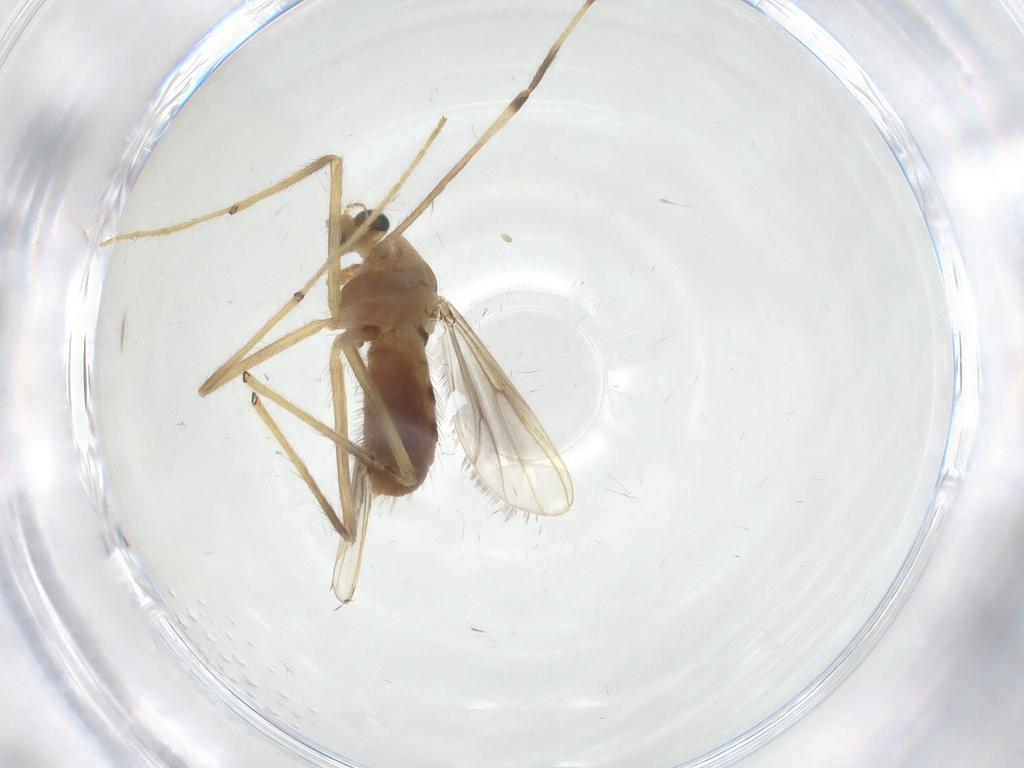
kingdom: Animalia
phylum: Arthropoda
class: Insecta
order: Diptera
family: Chironomidae
